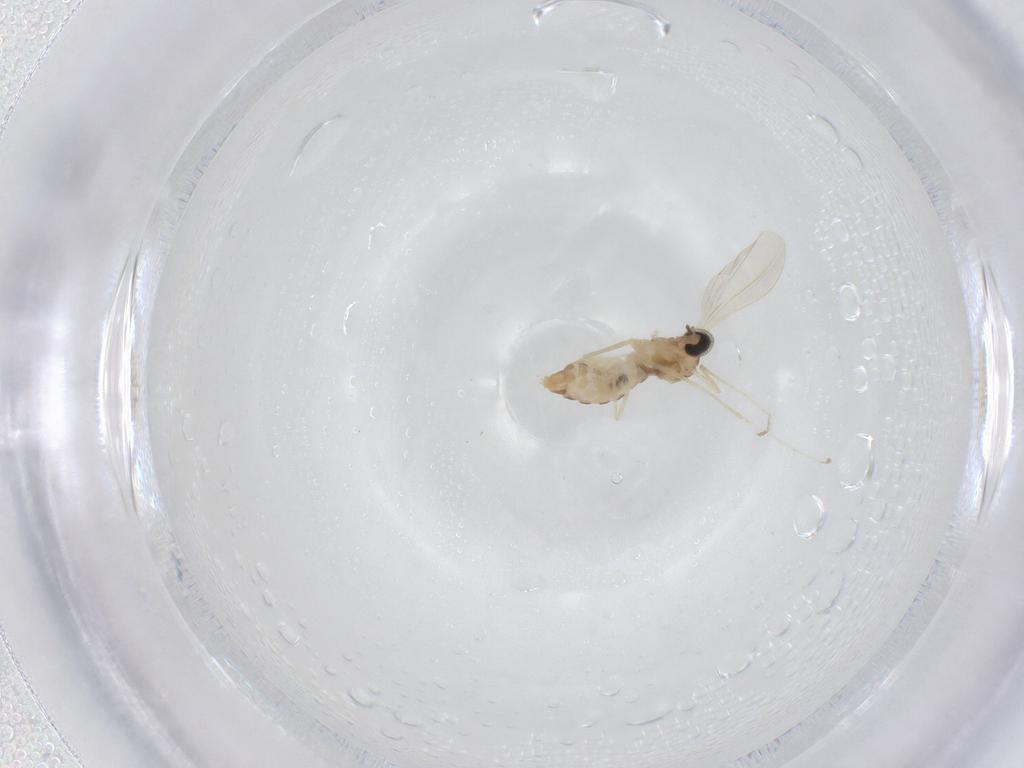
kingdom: Animalia
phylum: Arthropoda
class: Insecta
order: Diptera
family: Cecidomyiidae
